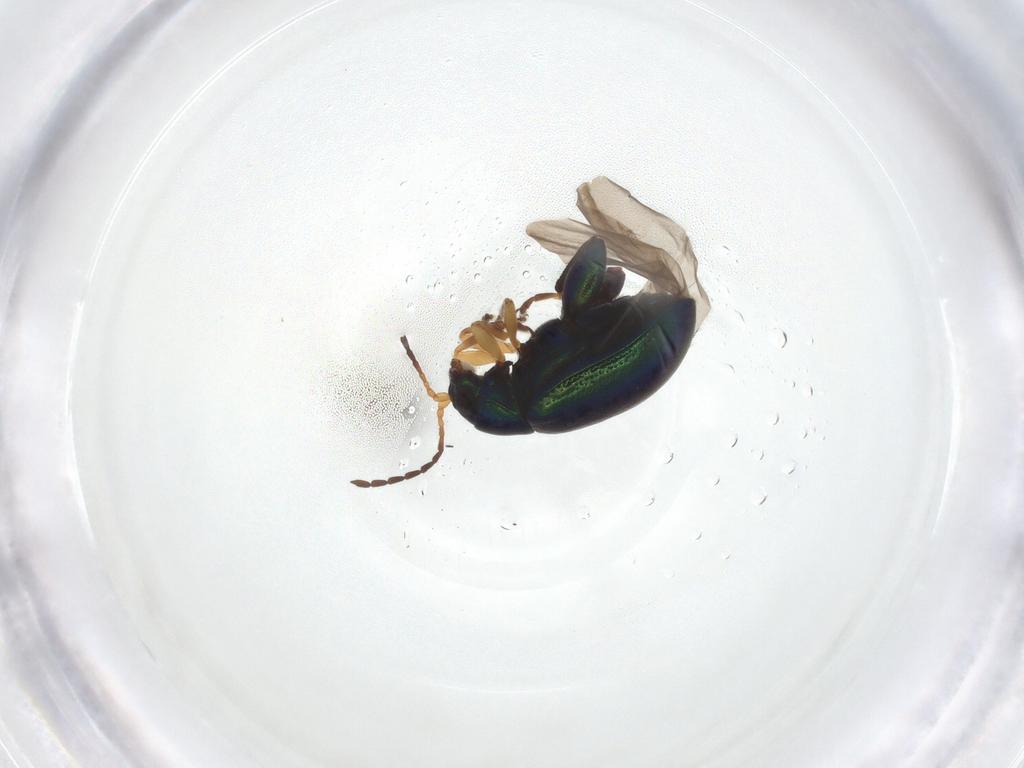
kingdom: Animalia
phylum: Arthropoda
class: Insecta
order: Coleoptera
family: Chrysomelidae
